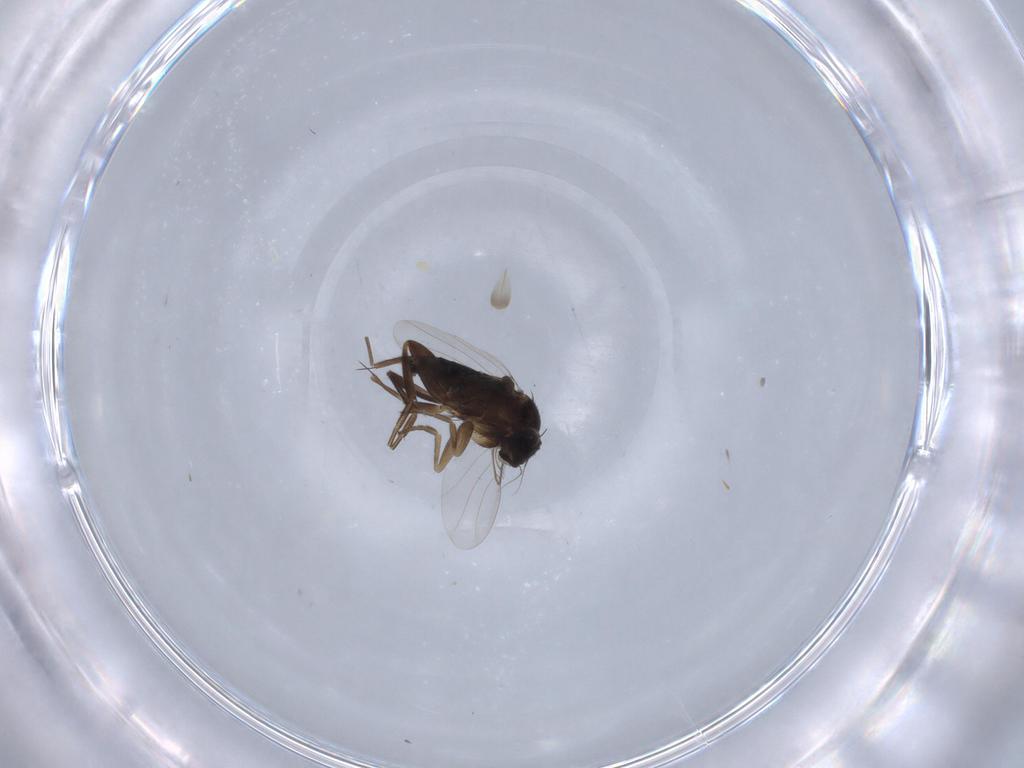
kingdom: Animalia
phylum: Arthropoda
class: Insecta
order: Diptera
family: Phoridae
